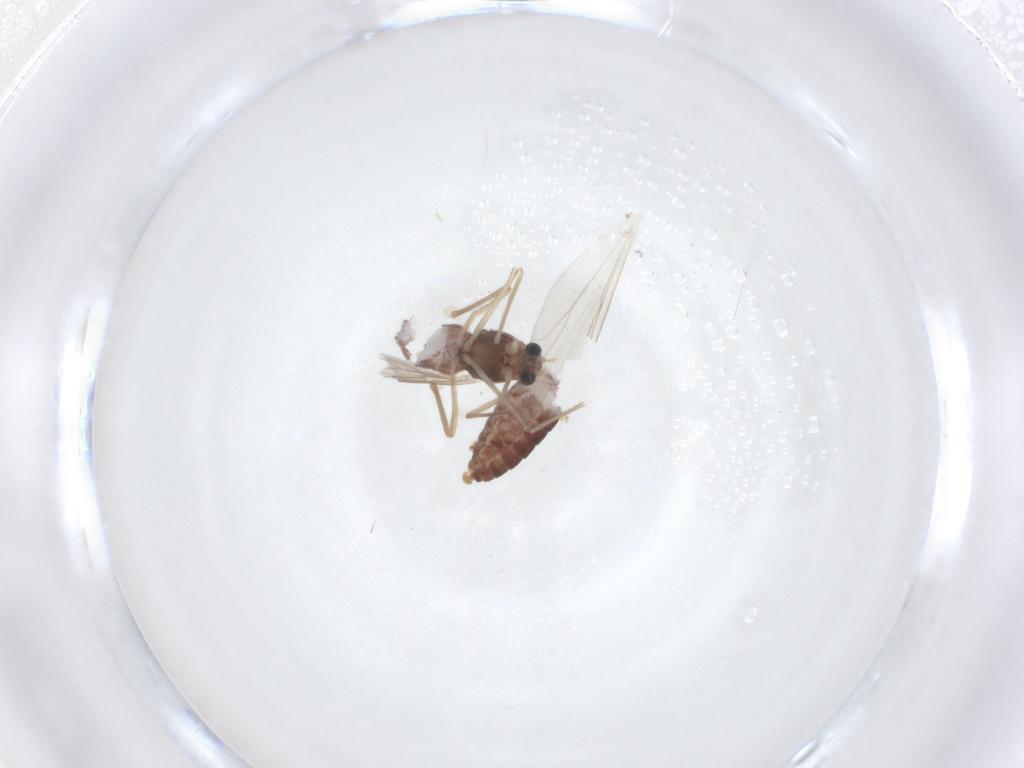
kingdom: Animalia
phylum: Arthropoda
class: Insecta
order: Diptera
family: Chironomidae
